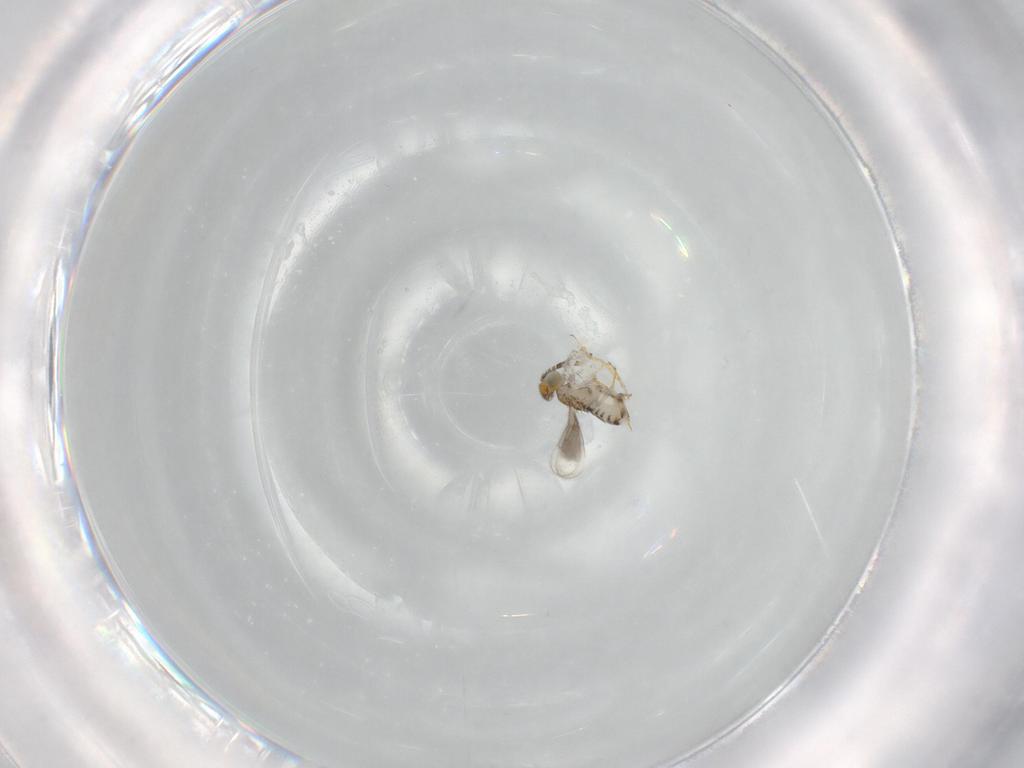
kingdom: Animalia
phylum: Arthropoda
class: Insecta
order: Hymenoptera
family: Aphelinidae
